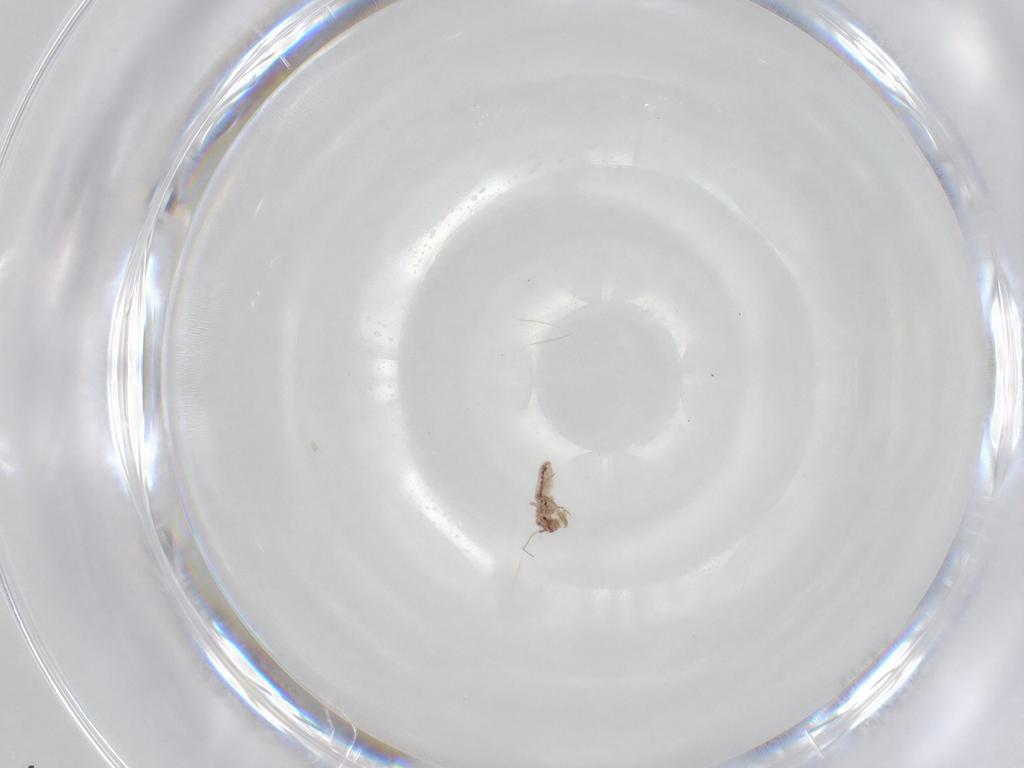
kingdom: Animalia
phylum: Arthropoda
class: Insecta
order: Psocodea
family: Lepidopsocidae
